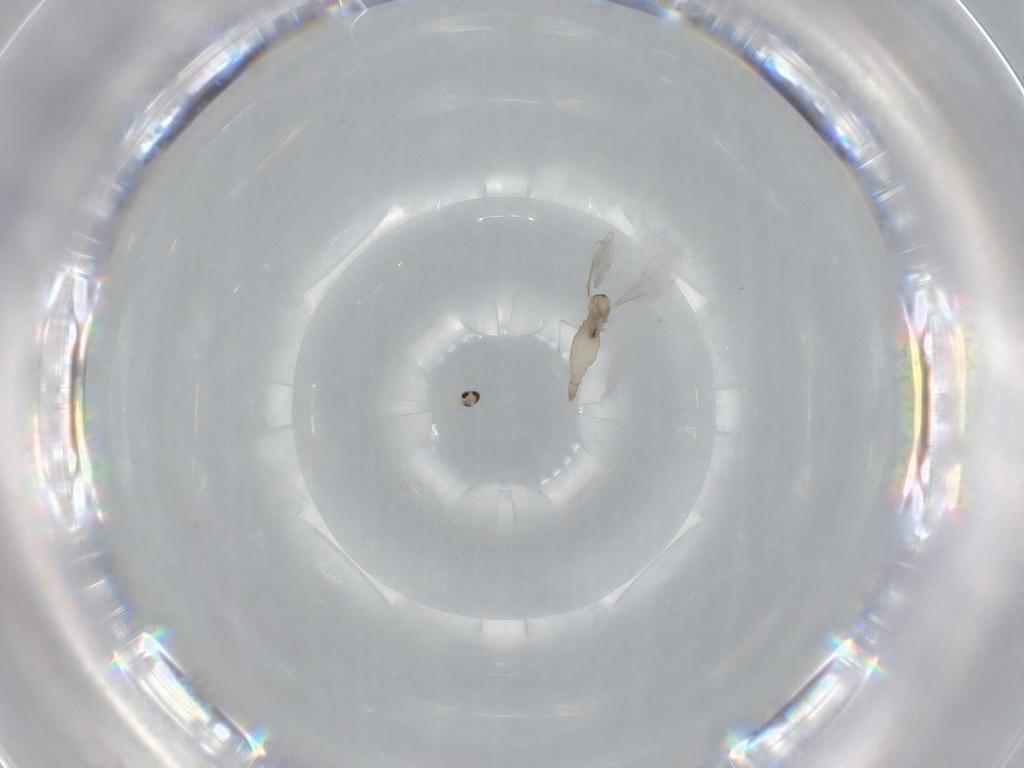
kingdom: Animalia
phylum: Arthropoda
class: Insecta
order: Diptera
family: Cecidomyiidae
